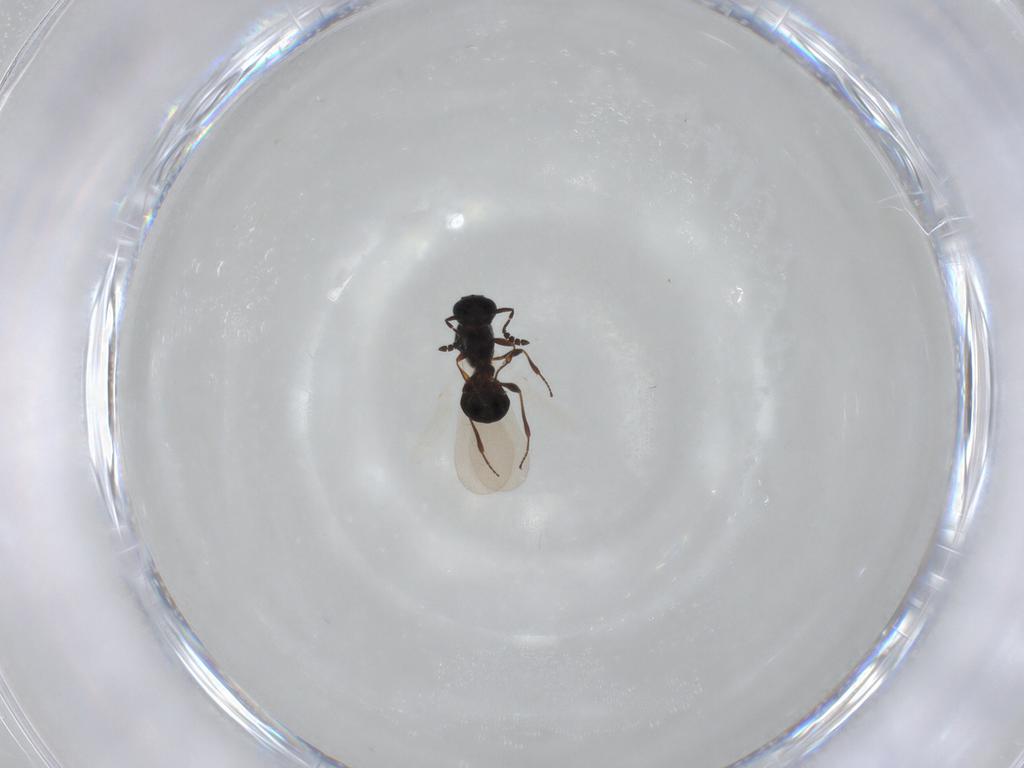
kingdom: Animalia
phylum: Arthropoda
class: Insecta
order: Hymenoptera
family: Platygastridae
